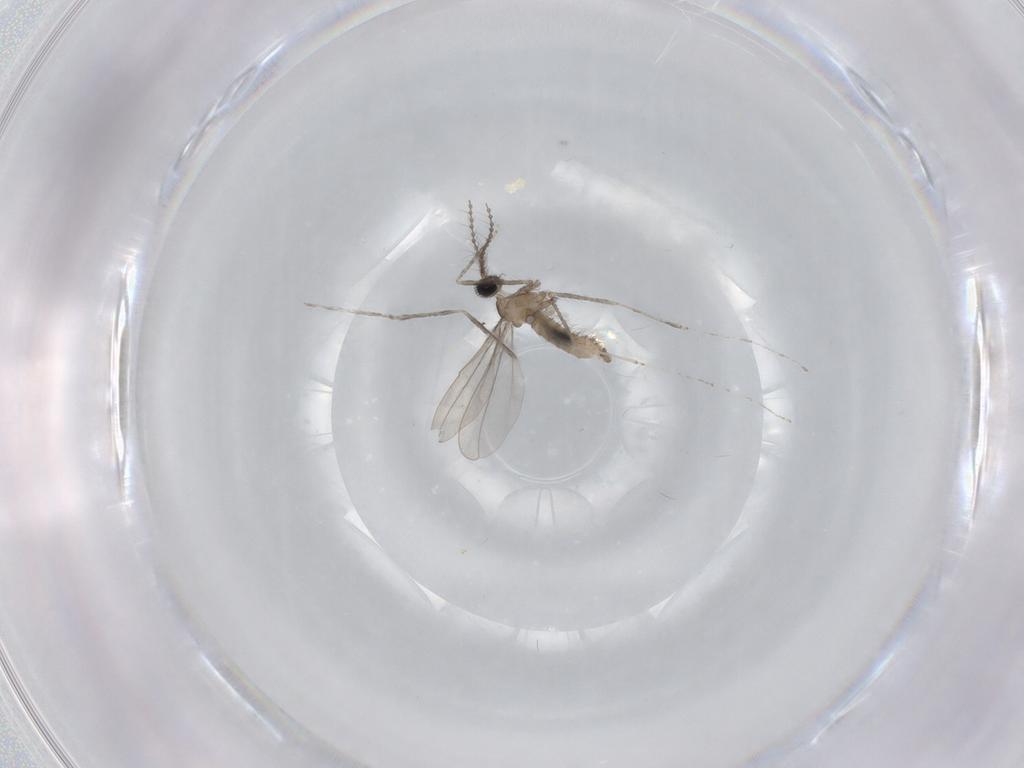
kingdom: Animalia
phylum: Arthropoda
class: Insecta
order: Diptera
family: Cecidomyiidae
